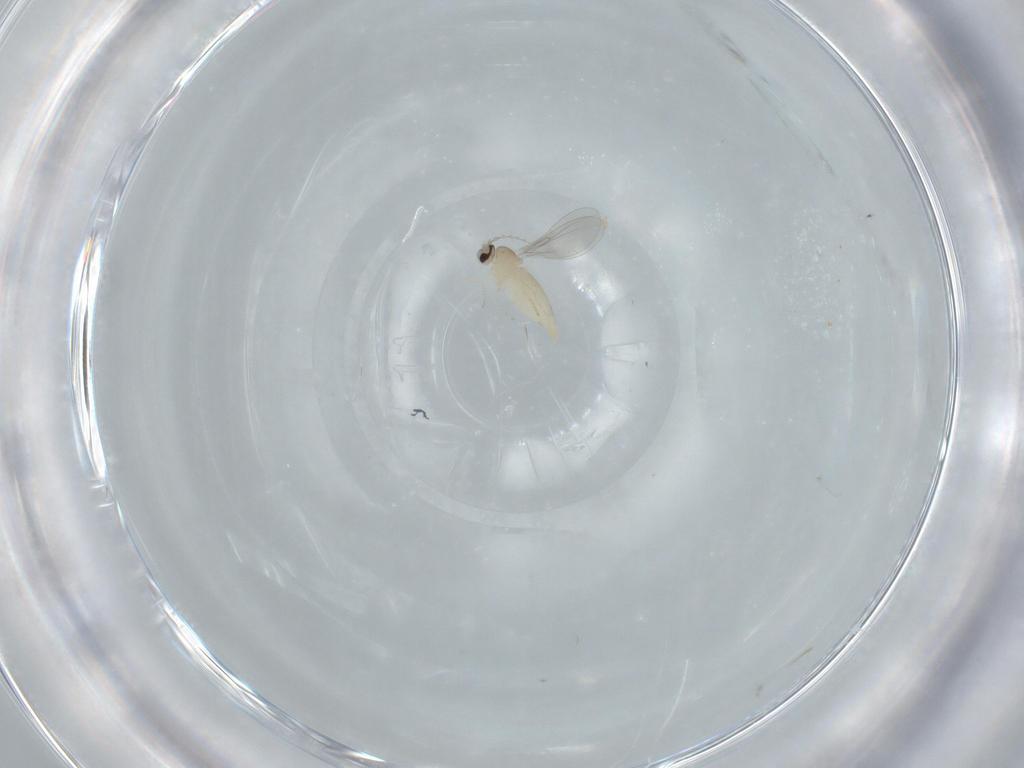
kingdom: Animalia
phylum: Arthropoda
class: Insecta
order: Diptera
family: Cecidomyiidae
